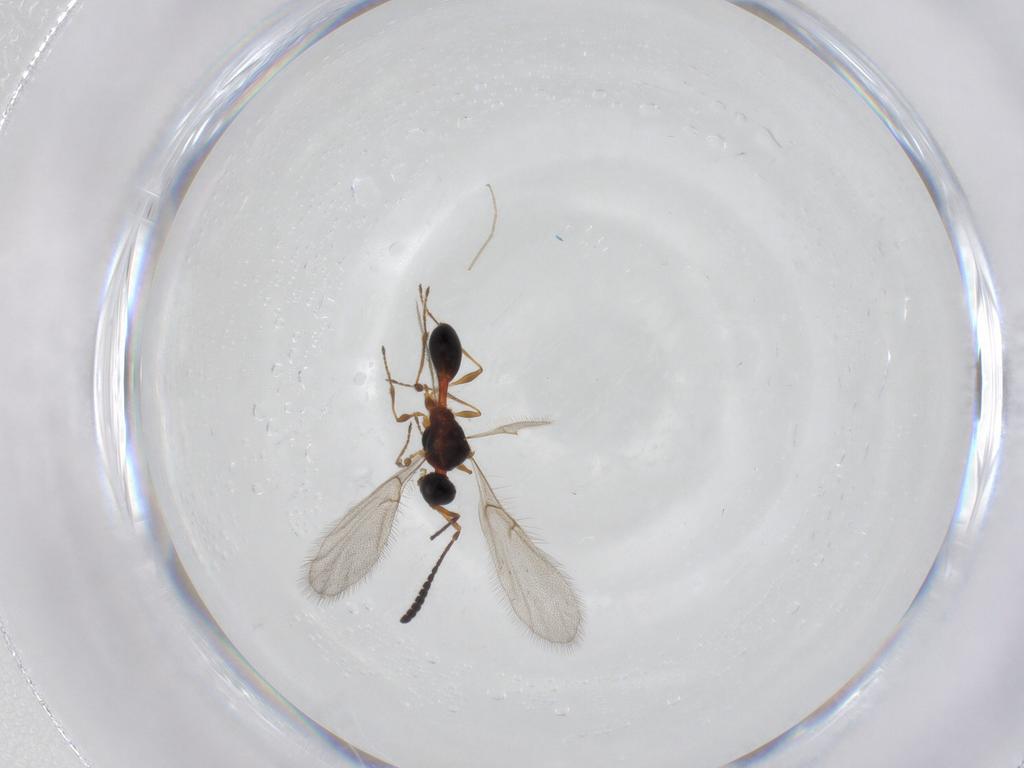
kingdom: Animalia
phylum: Arthropoda
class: Insecta
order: Hymenoptera
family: Diapriidae
